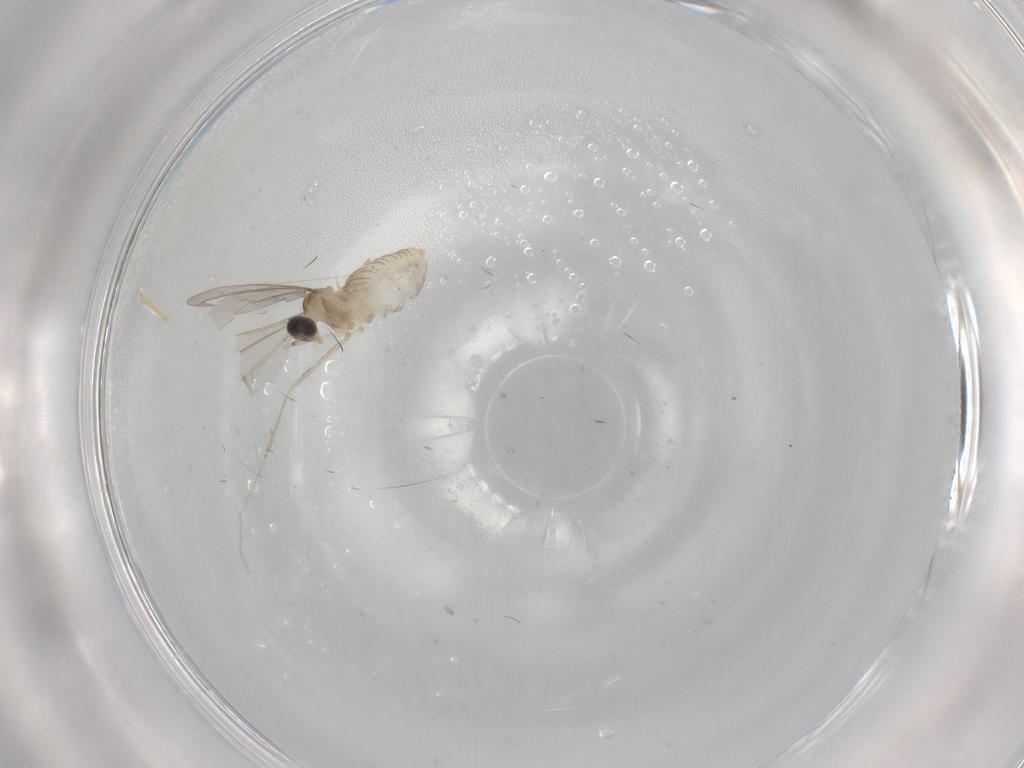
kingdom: Animalia
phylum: Arthropoda
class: Insecta
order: Diptera
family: Cecidomyiidae
